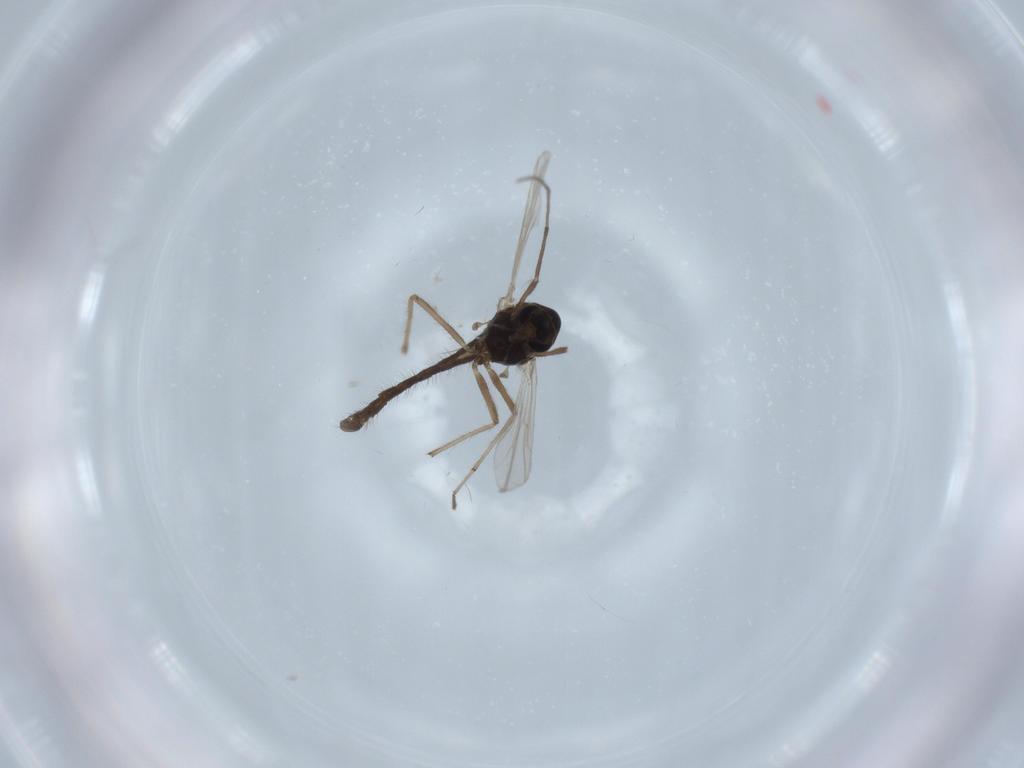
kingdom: Animalia
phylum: Arthropoda
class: Insecta
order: Diptera
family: Chironomidae
